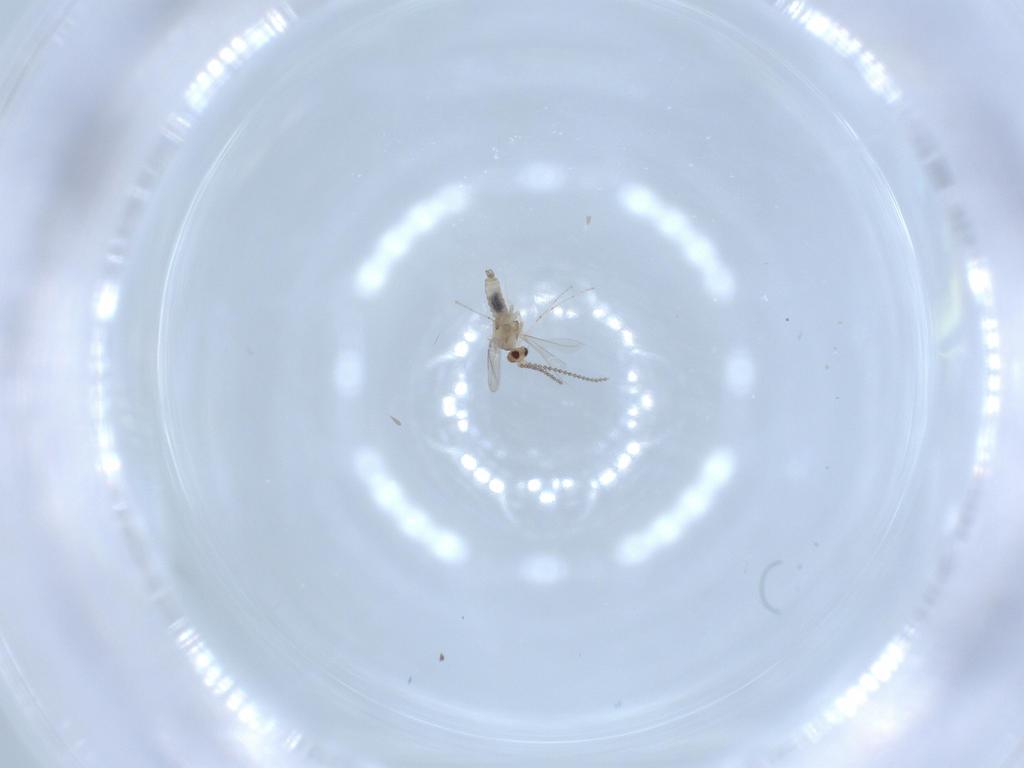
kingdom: Animalia
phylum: Arthropoda
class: Insecta
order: Diptera
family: Cecidomyiidae
